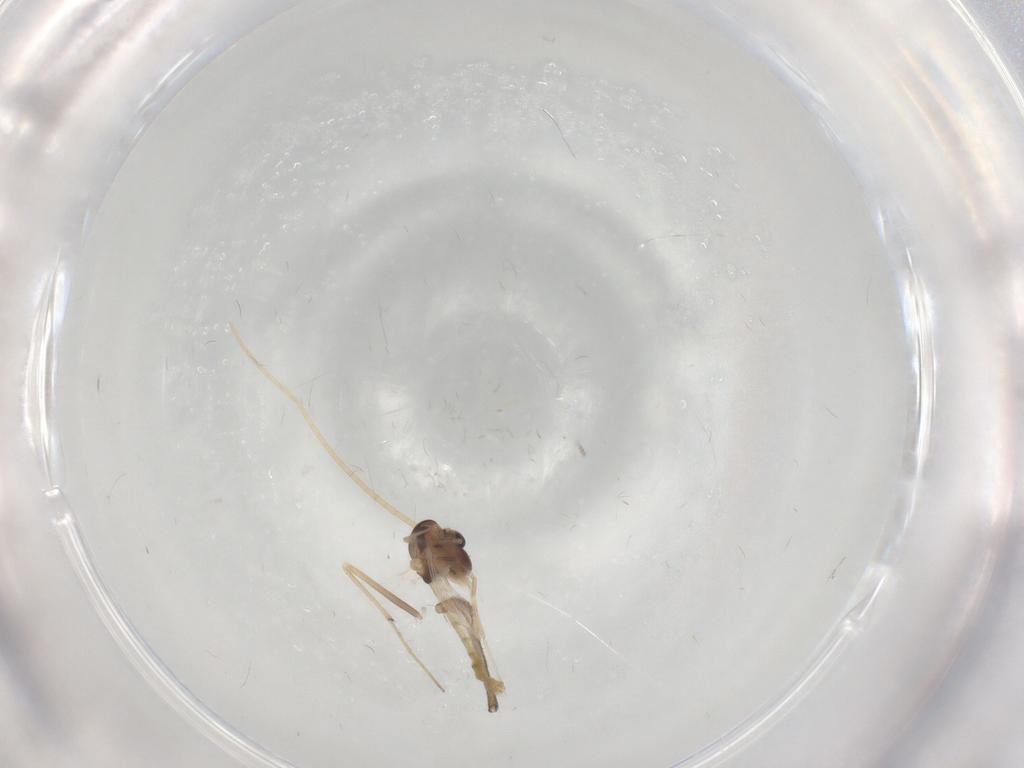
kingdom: Animalia
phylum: Arthropoda
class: Insecta
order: Diptera
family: Chironomidae
